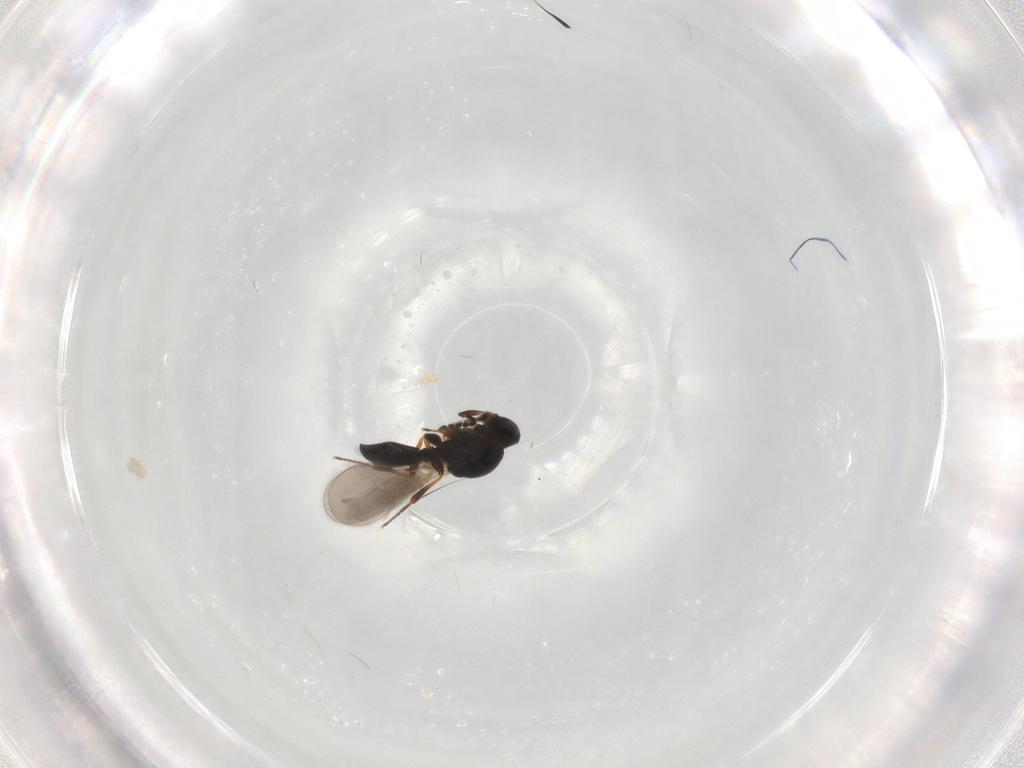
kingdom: Animalia
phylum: Arthropoda
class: Insecta
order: Hymenoptera
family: Platygastridae
